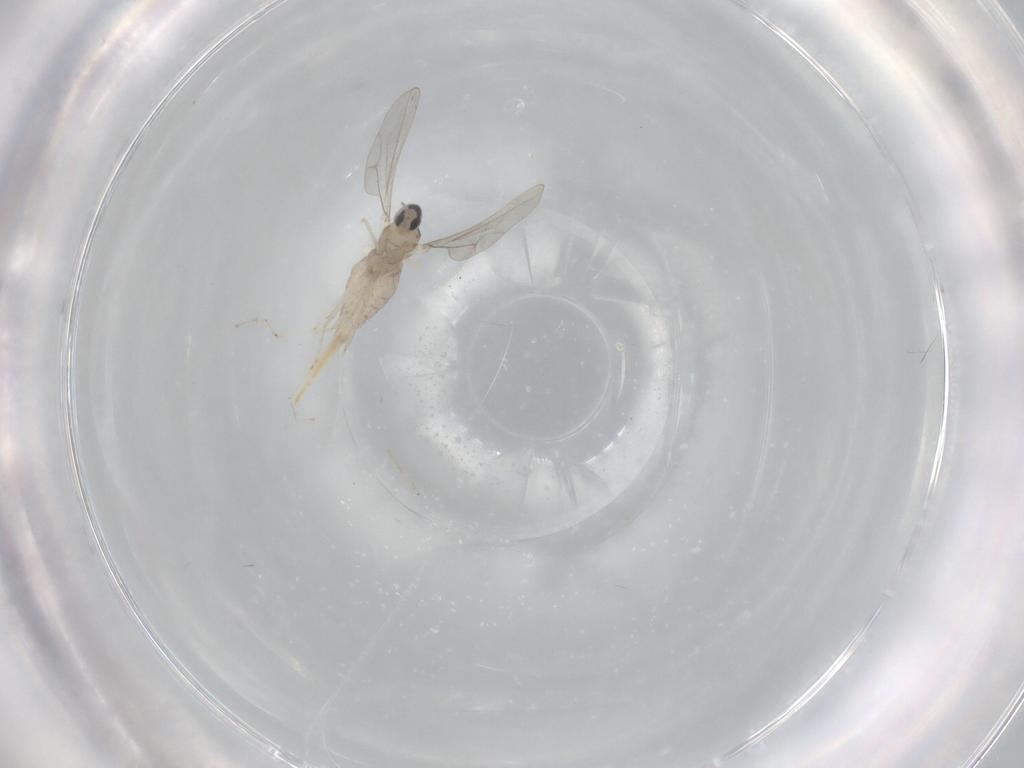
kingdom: Animalia
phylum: Arthropoda
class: Insecta
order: Diptera
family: Cecidomyiidae
